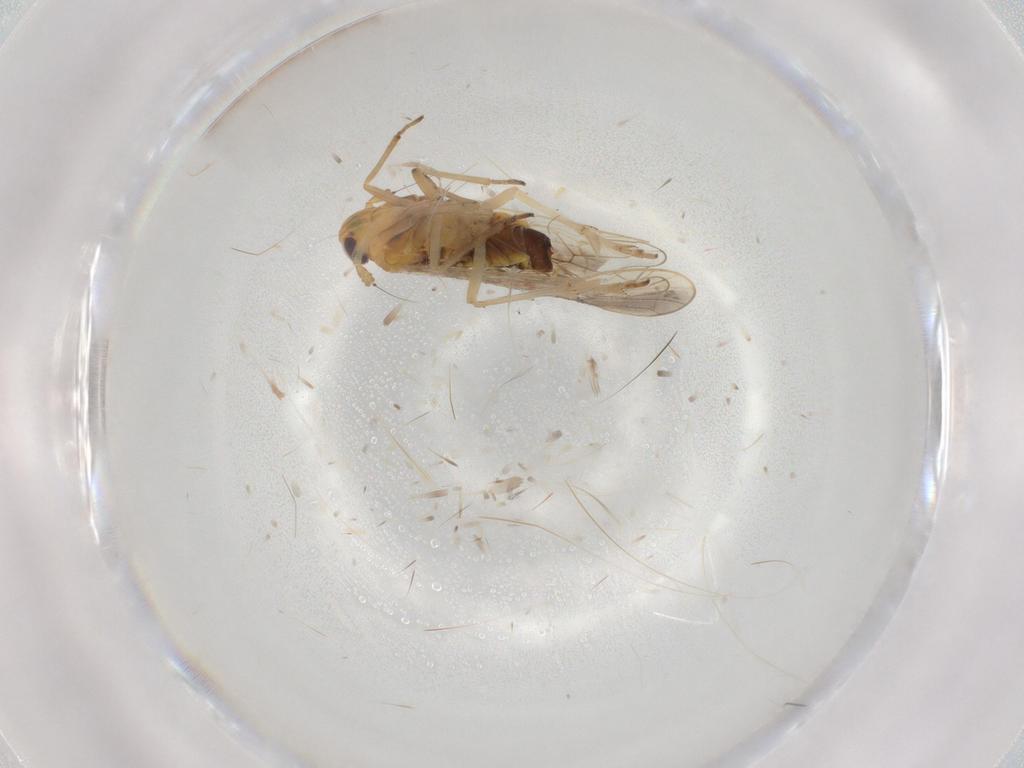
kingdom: Animalia
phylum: Arthropoda
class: Insecta
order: Hemiptera
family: Delphacidae
